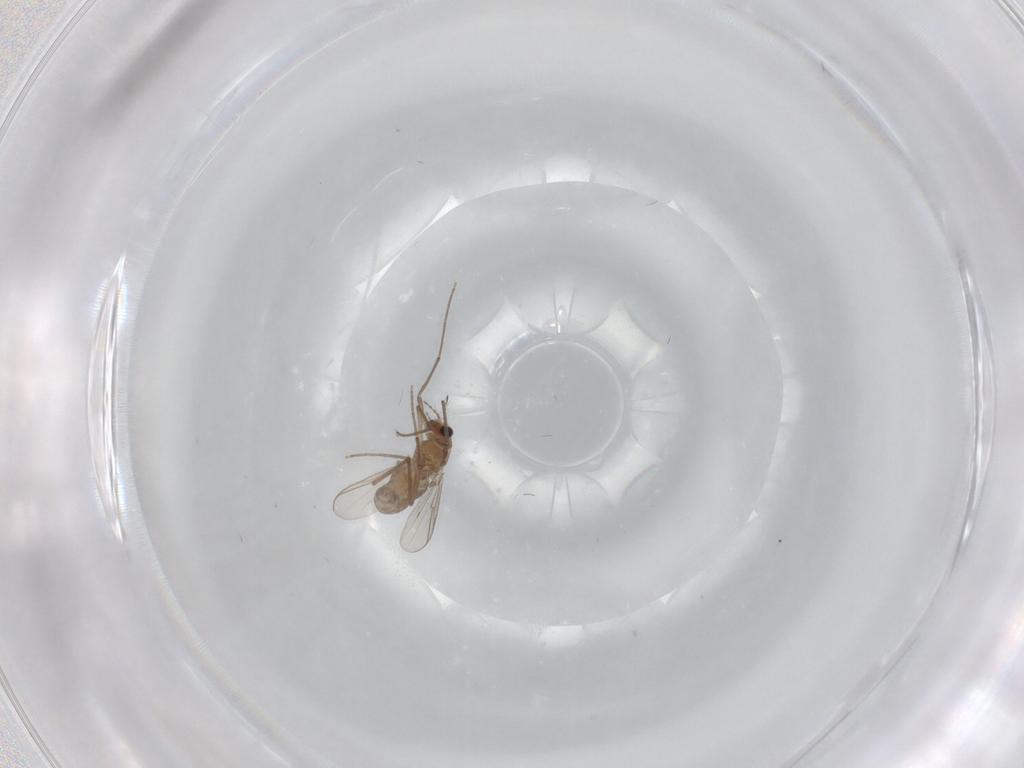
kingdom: Animalia
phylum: Arthropoda
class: Insecta
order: Diptera
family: Chironomidae
